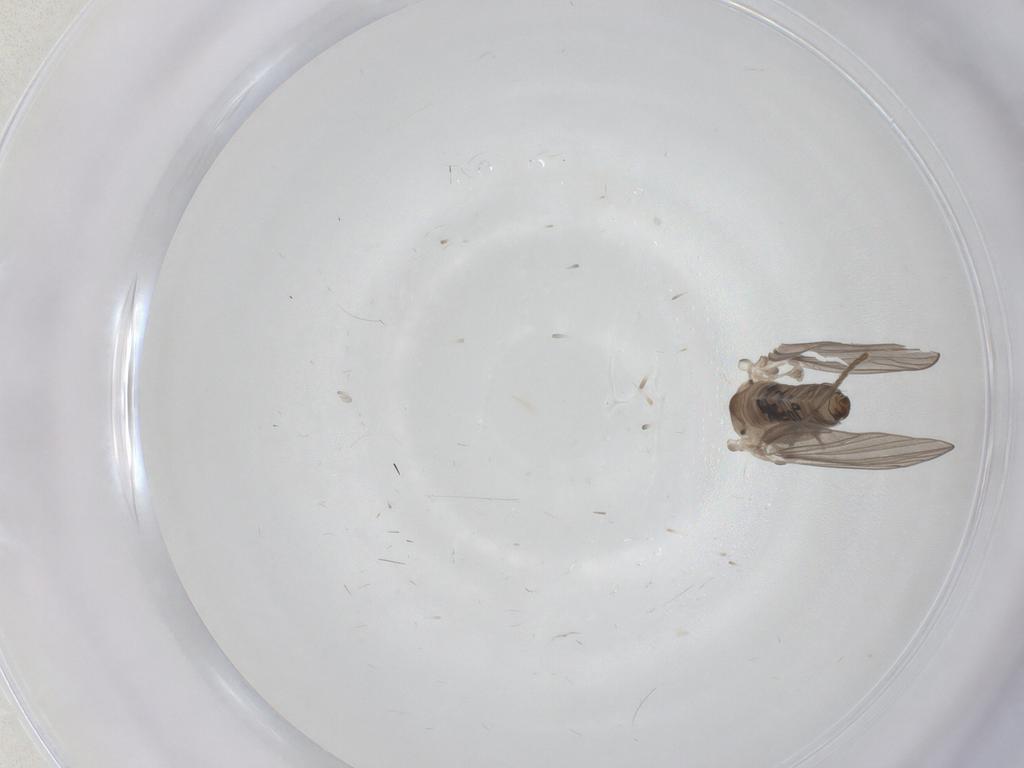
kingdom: Animalia
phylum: Arthropoda
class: Insecta
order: Diptera
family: Psychodidae
